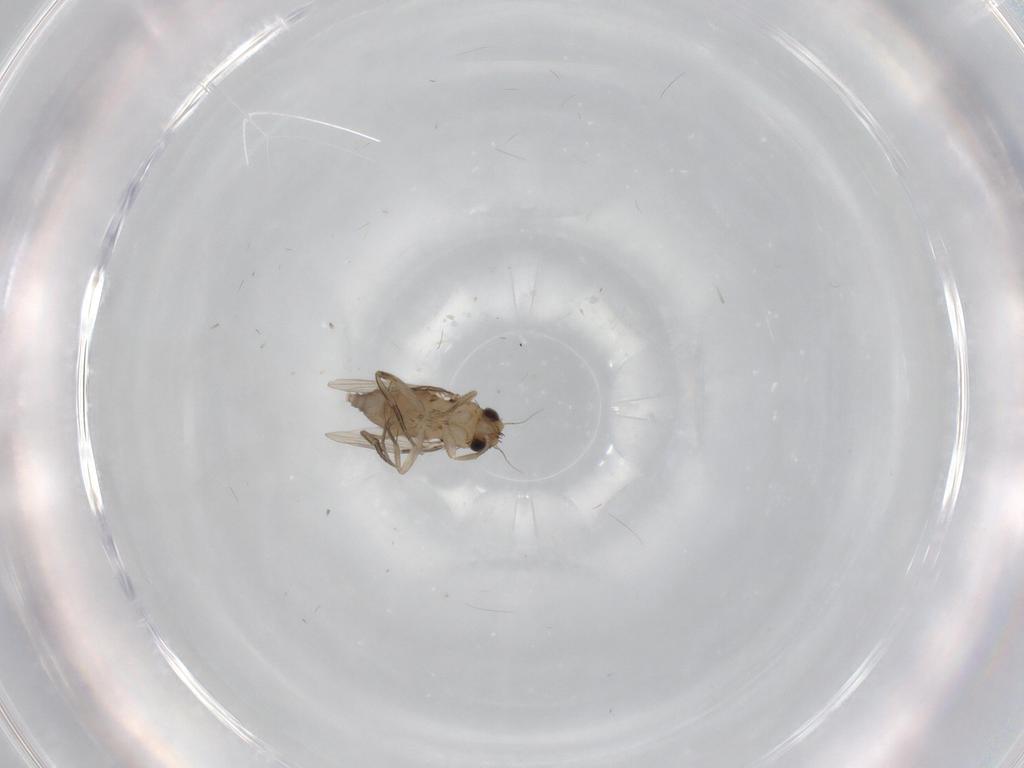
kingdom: Animalia
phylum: Arthropoda
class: Insecta
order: Diptera
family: Phoridae
